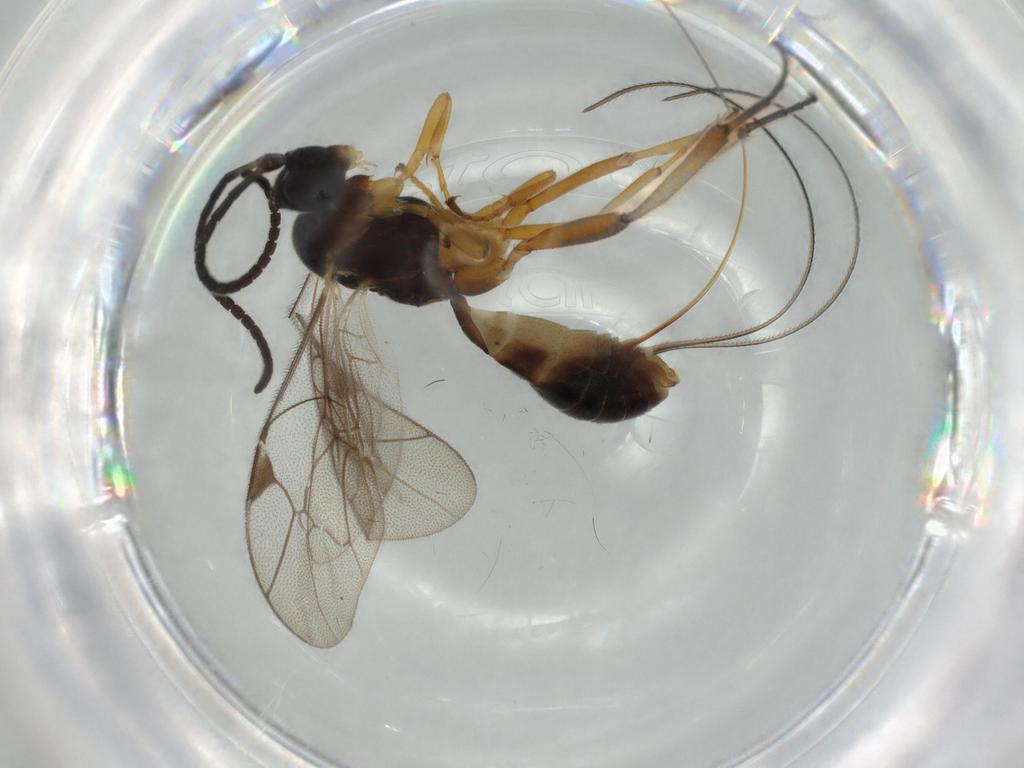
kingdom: Animalia
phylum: Arthropoda
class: Insecta
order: Hymenoptera
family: Ichneumonidae
